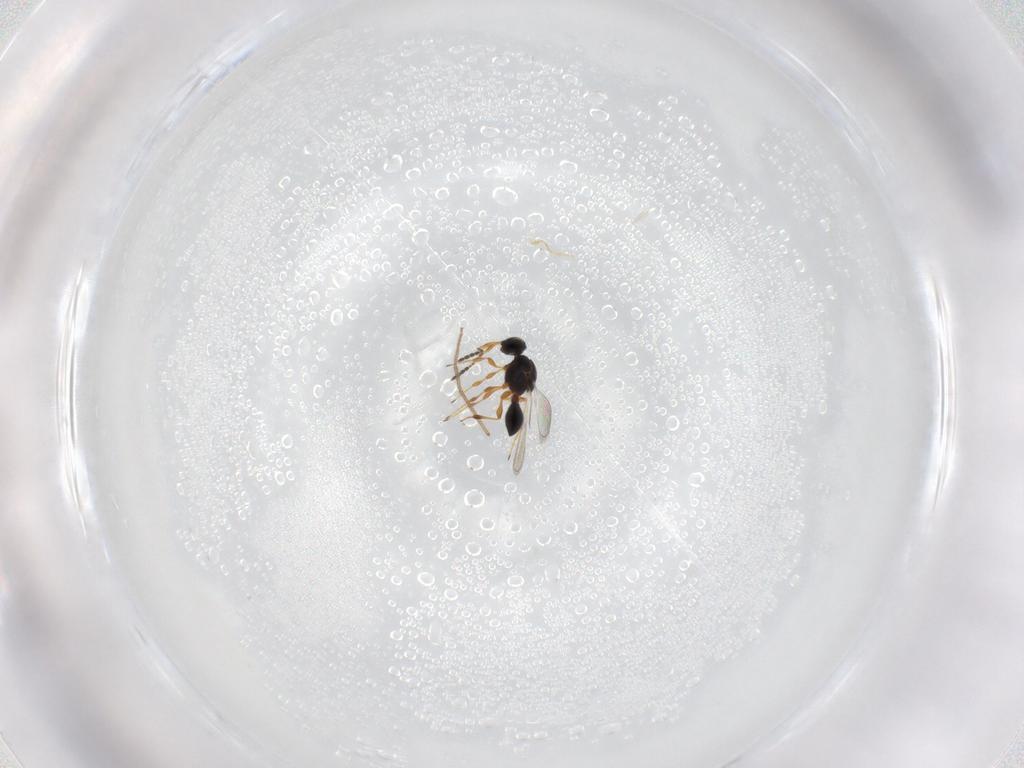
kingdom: Animalia
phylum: Arthropoda
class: Insecta
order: Hymenoptera
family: Platygastridae
